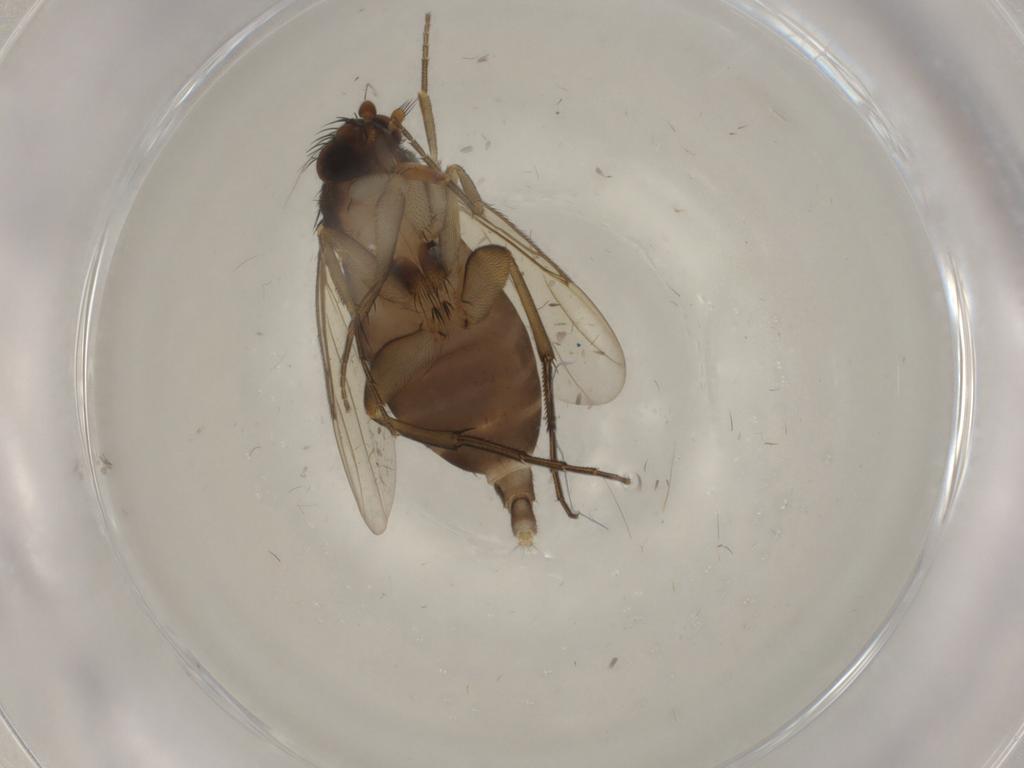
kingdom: Animalia
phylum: Arthropoda
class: Insecta
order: Diptera
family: Phoridae
